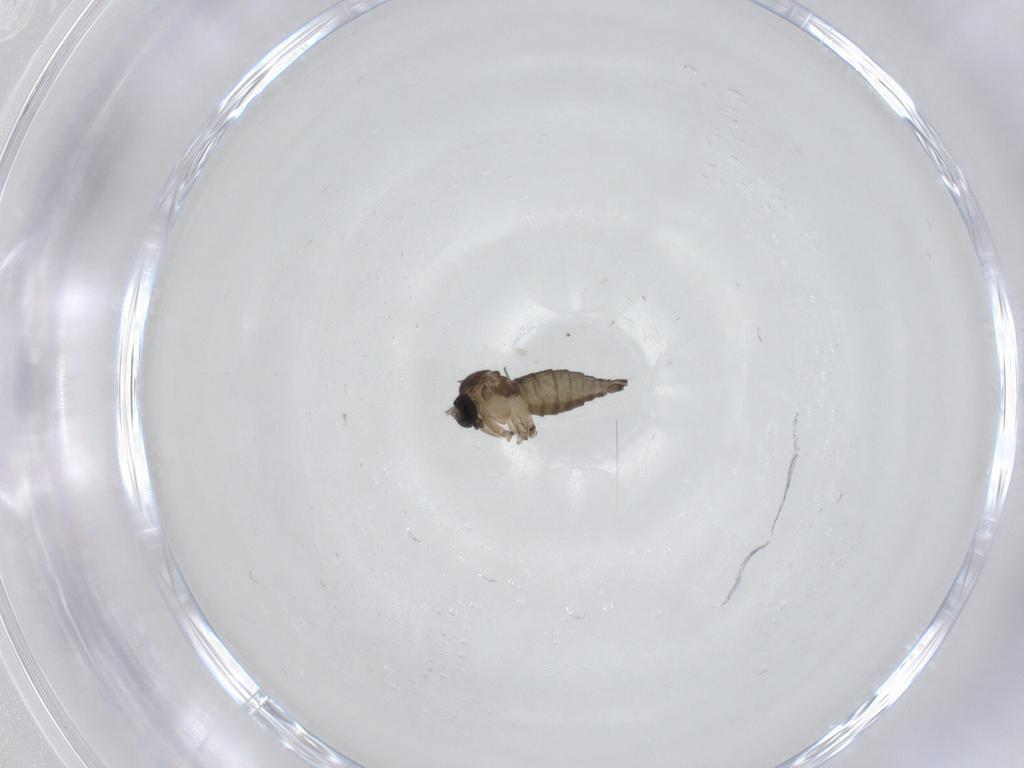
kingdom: Animalia
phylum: Arthropoda
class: Insecta
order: Diptera
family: Sciaridae
